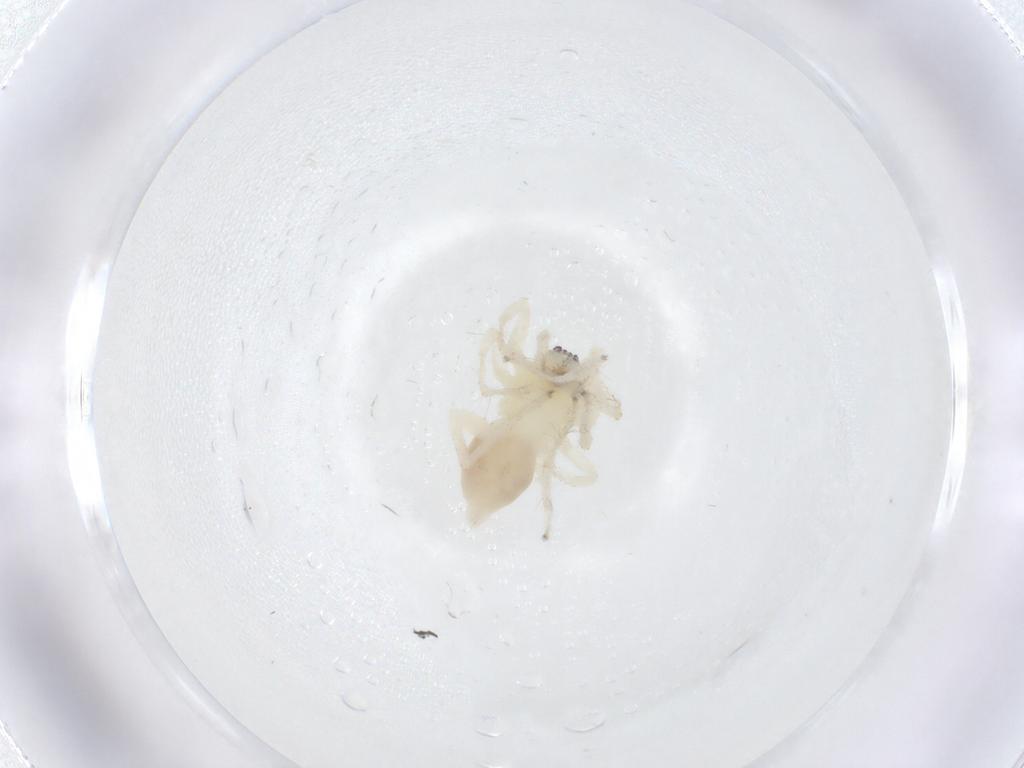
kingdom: Animalia
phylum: Arthropoda
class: Arachnida
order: Araneae
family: Anyphaenidae
